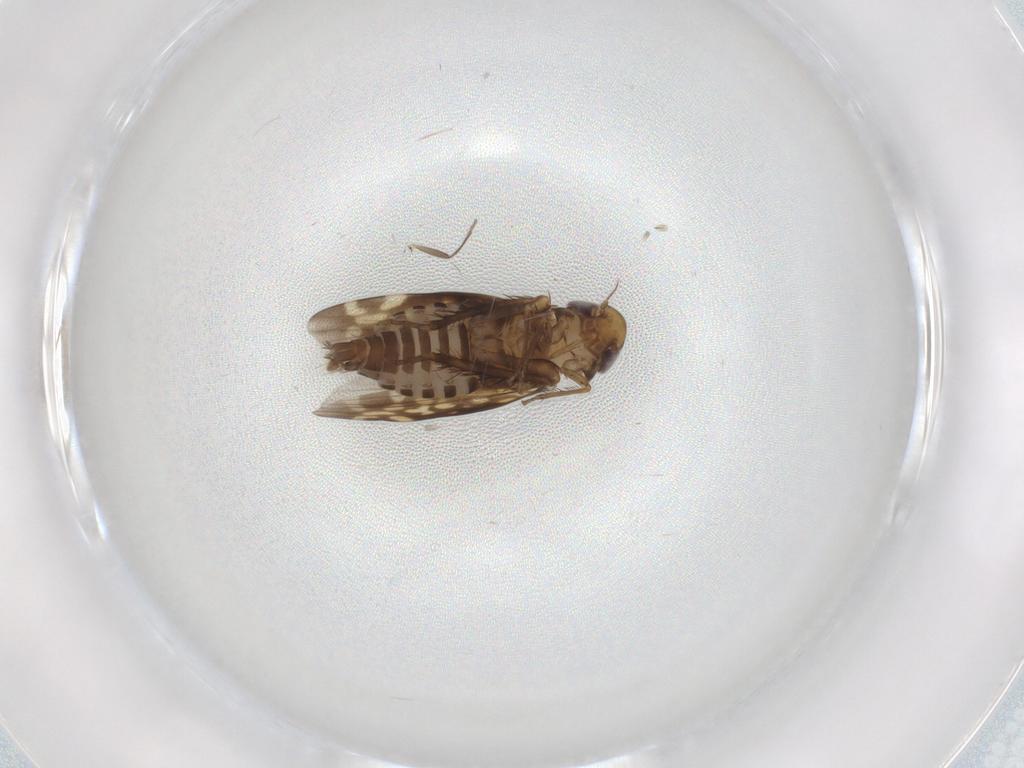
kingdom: Animalia
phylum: Arthropoda
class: Insecta
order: Hemiptera
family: Cicadellidae
